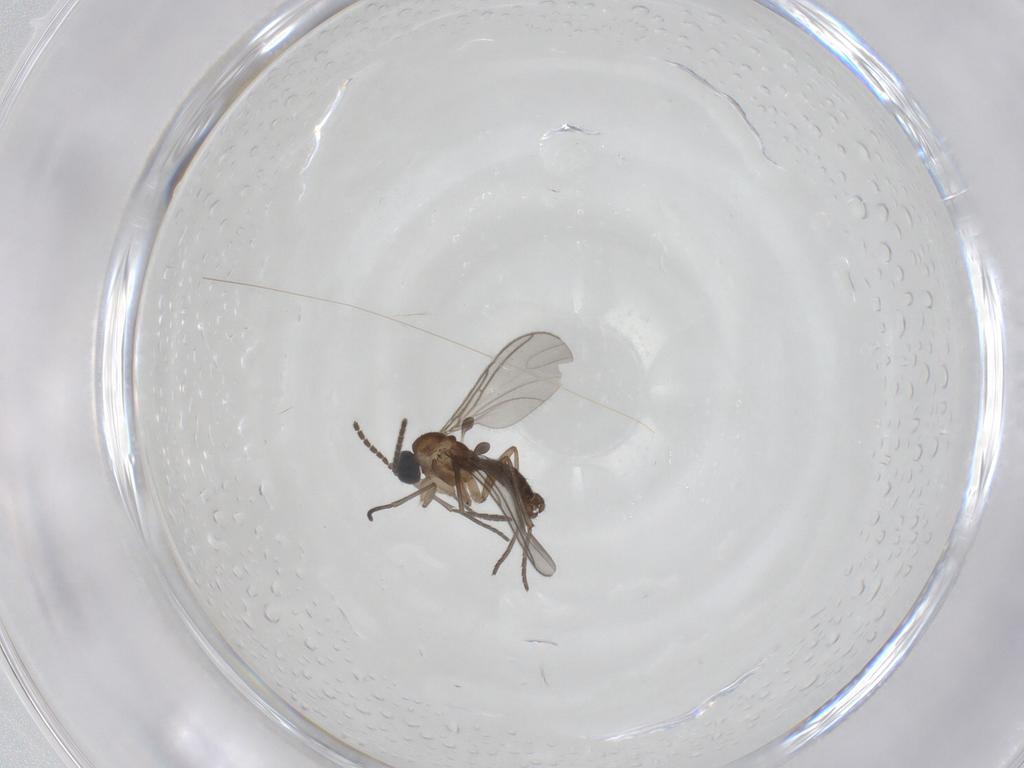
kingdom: Animalia
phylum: Arthropoda
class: Insecta
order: Diptera
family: Sciaridae
